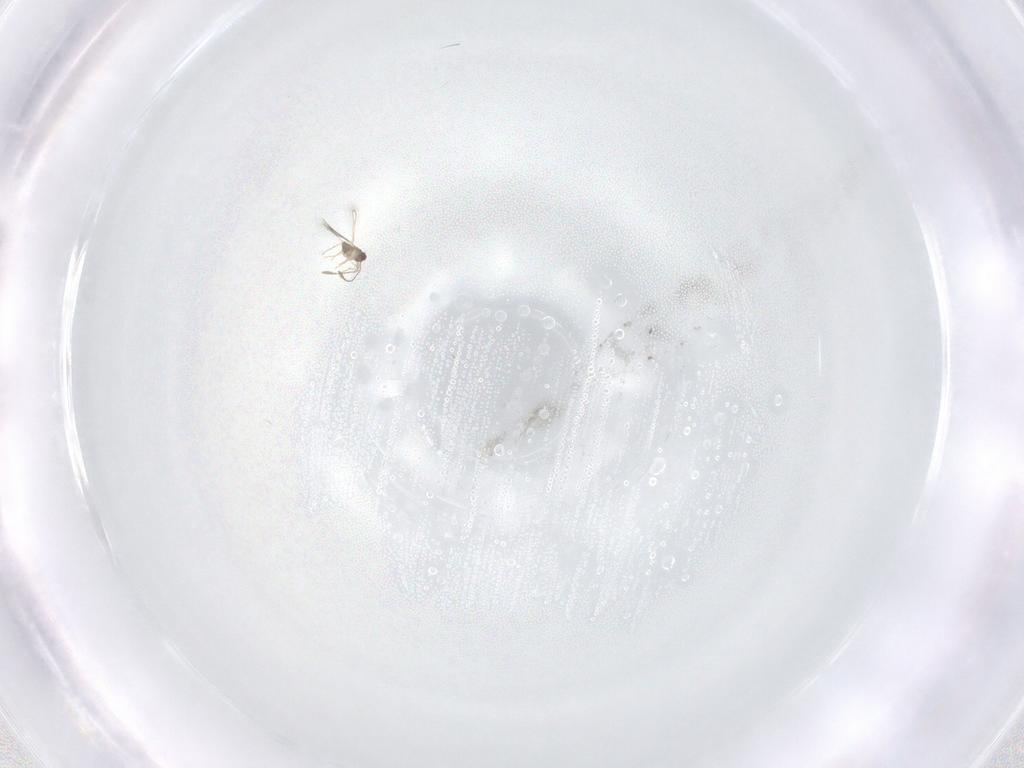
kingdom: Animalia
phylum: Arthropoda
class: Insecta
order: Hymenoptera
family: Mymaridae
